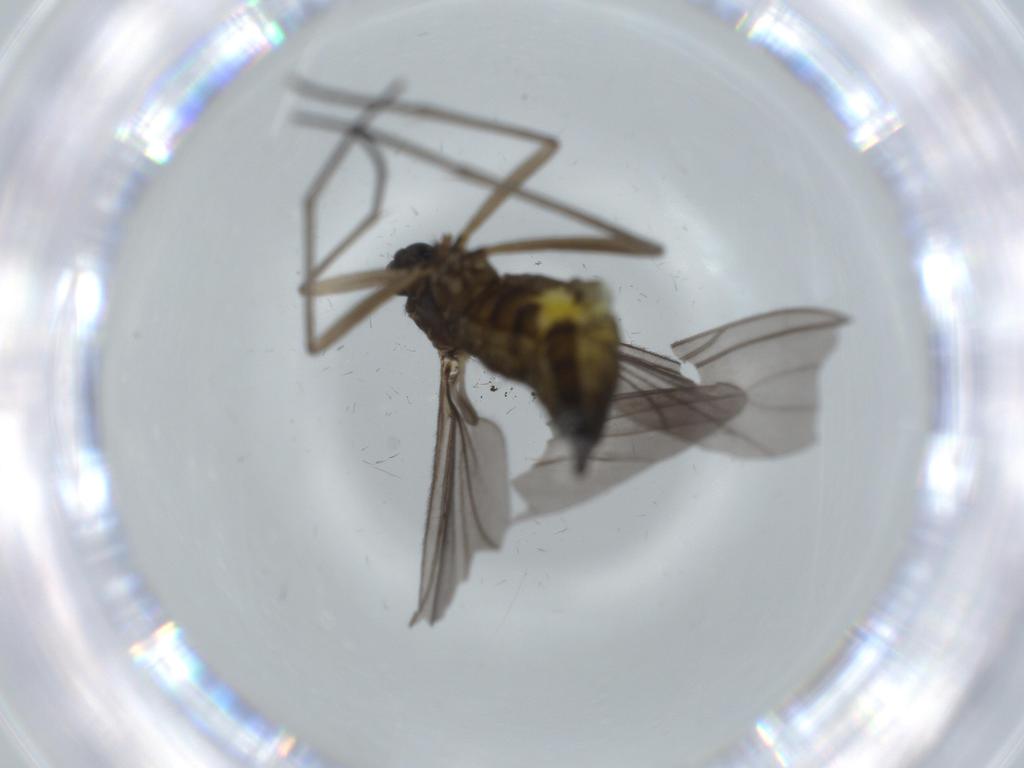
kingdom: Animalia
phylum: Arthropoda
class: Insecta
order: Diptera
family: Sciaridae
